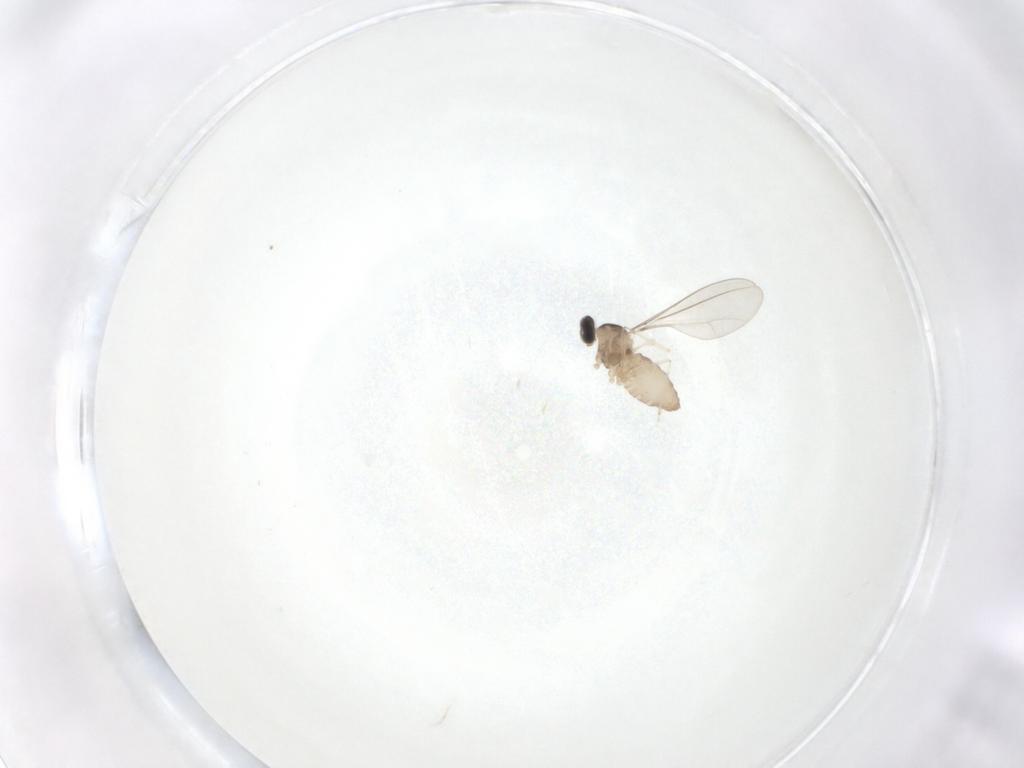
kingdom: Animalia
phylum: Arthropoda
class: Insecta
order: Diptera
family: Cecidomyiidae
